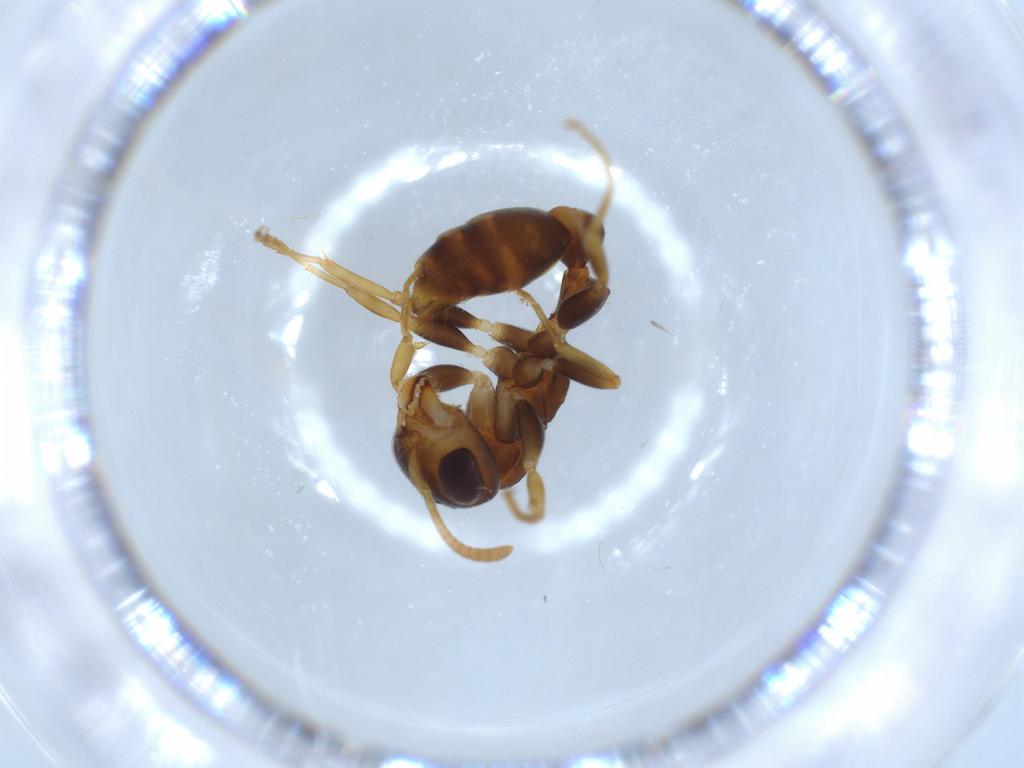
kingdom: Animalia
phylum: Arthropoda
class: Insecta
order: Hymenoptera
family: Formicidae
